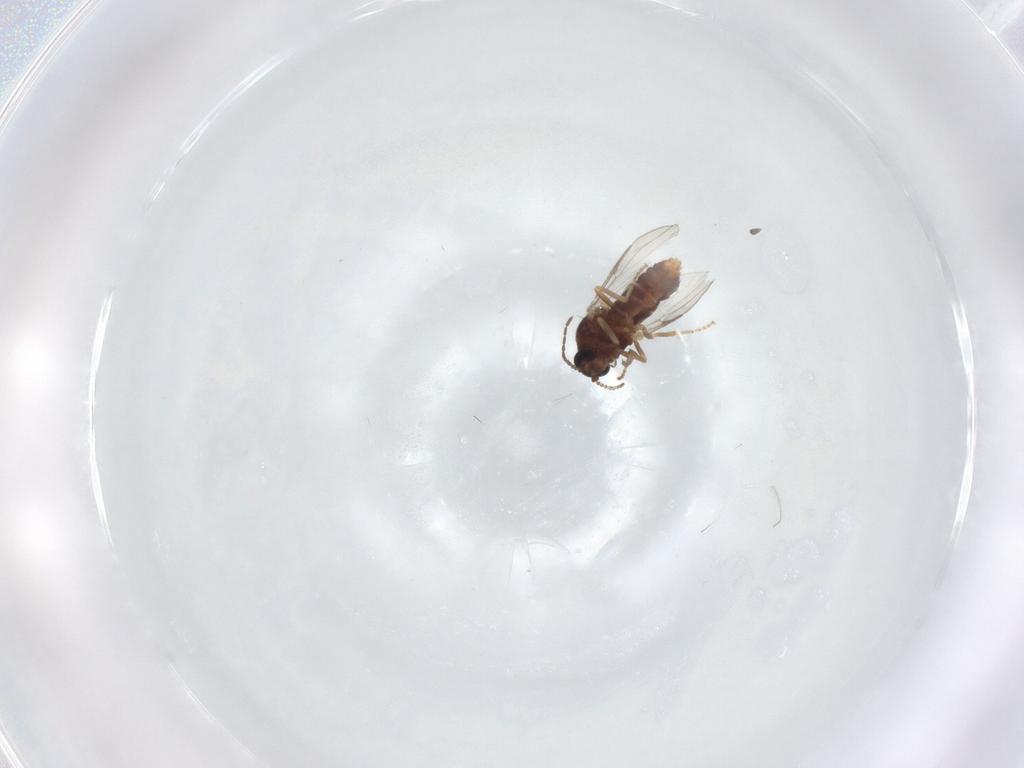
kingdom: Animalia
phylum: Arthropoda
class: Insecta
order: Diptera
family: Ceratopogonidae
